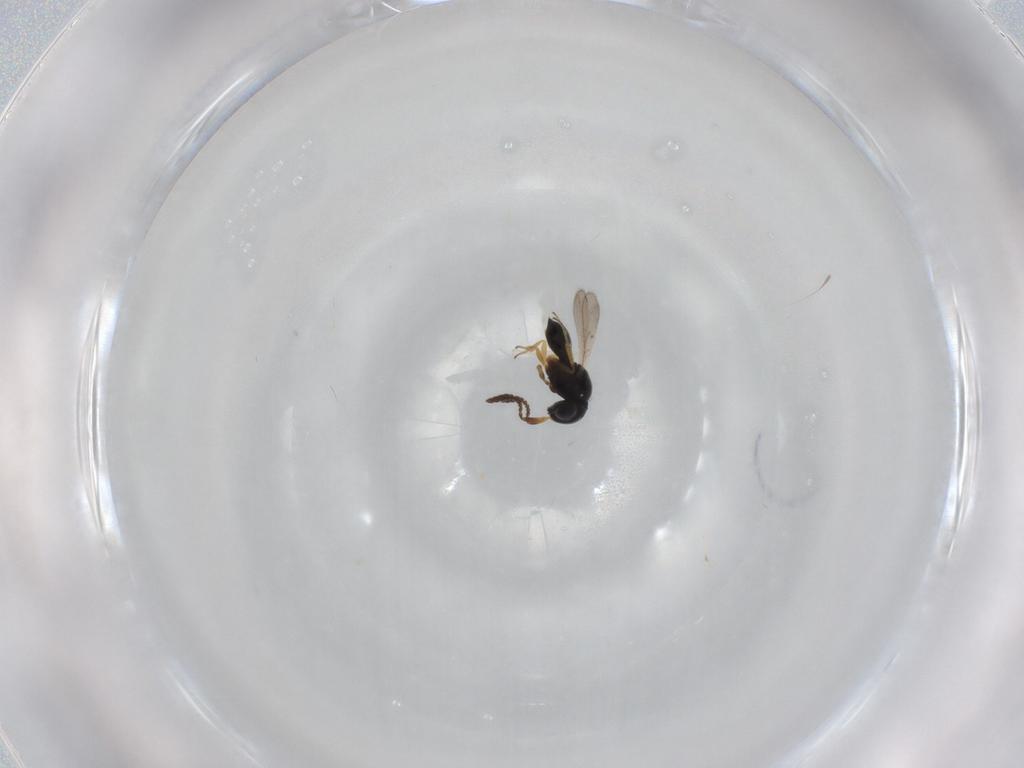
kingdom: Animalia
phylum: Arthropoda
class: Insecta
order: Hymenoptera
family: Scelionidae
